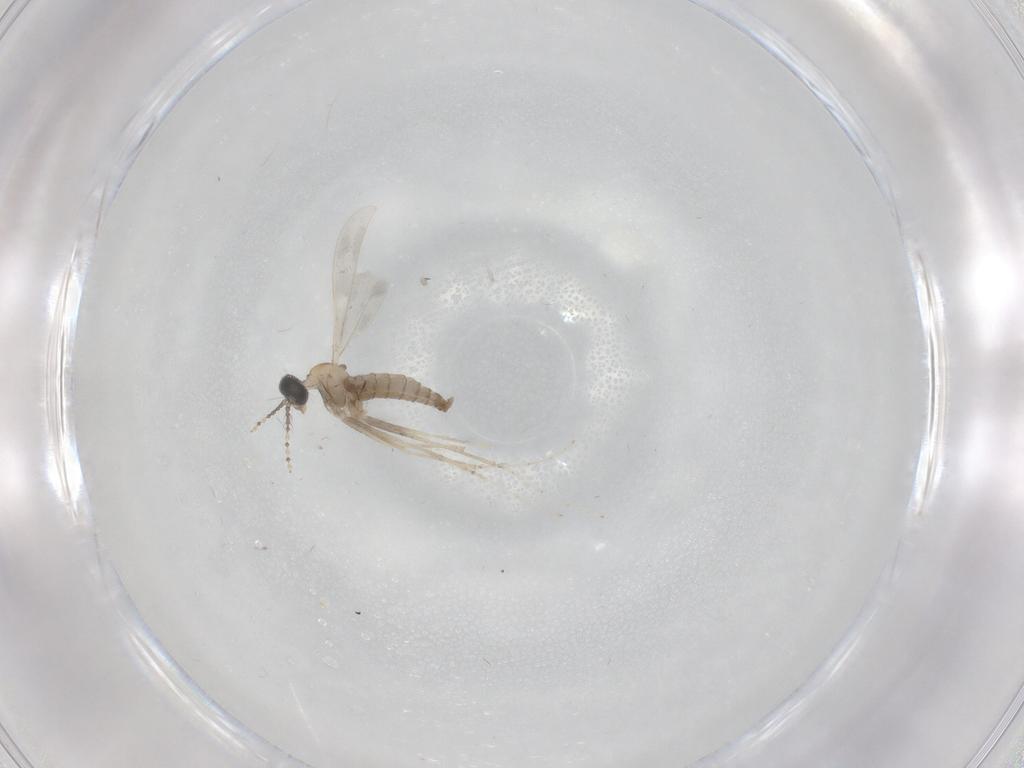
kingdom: Animalia
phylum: Arthropoda
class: Insecta
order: Diptera
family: Cecidomyiidae
